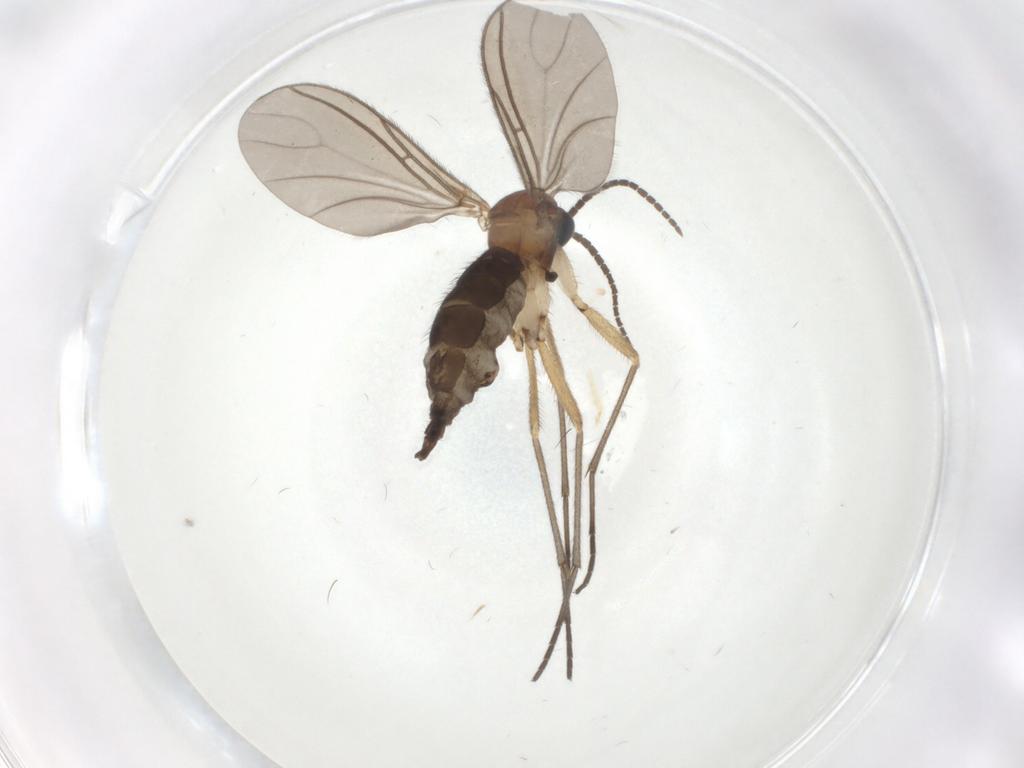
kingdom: Animalia
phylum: Arthropoda
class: Insecta
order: Diptera
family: Sciaridae
